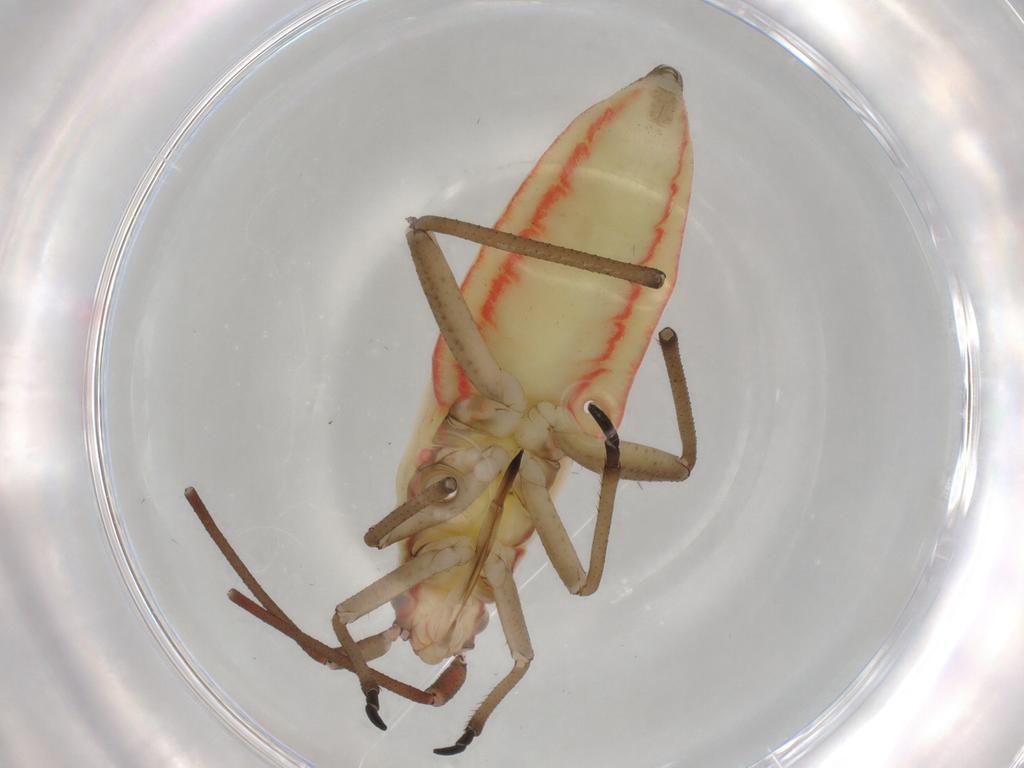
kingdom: Animalia
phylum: Arthropoda
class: Insecta
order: Hemiptera
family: Miridae
